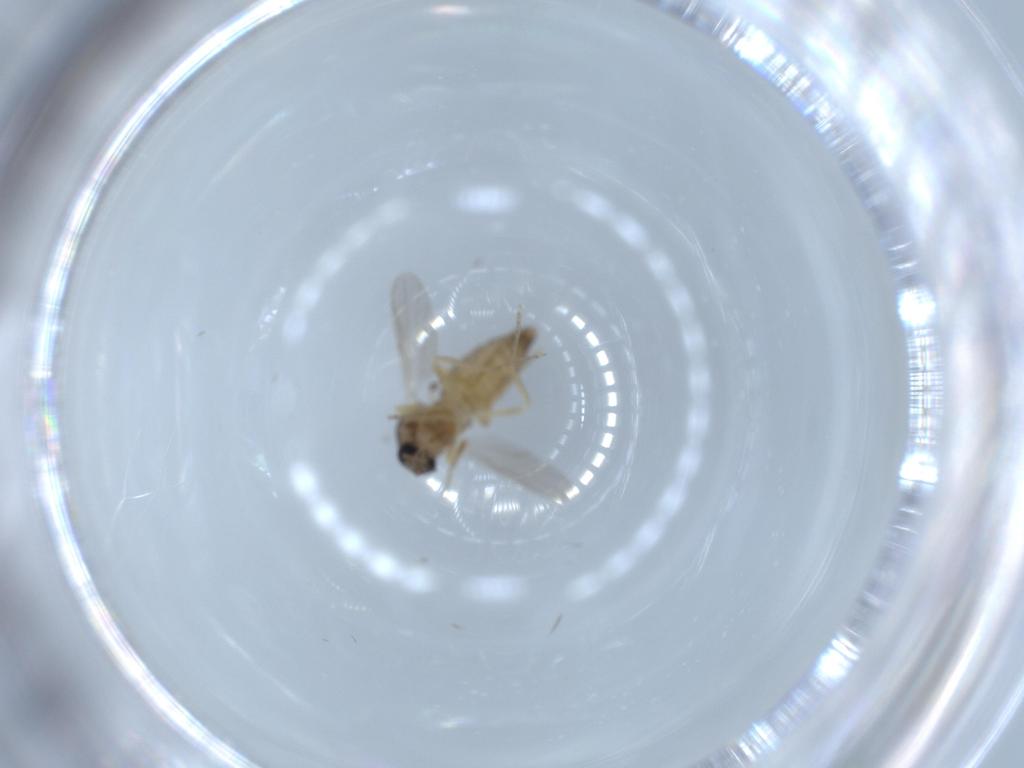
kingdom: Animalia
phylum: Arthropoda
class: Insecta
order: Diptera
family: Ceratopogonidae
